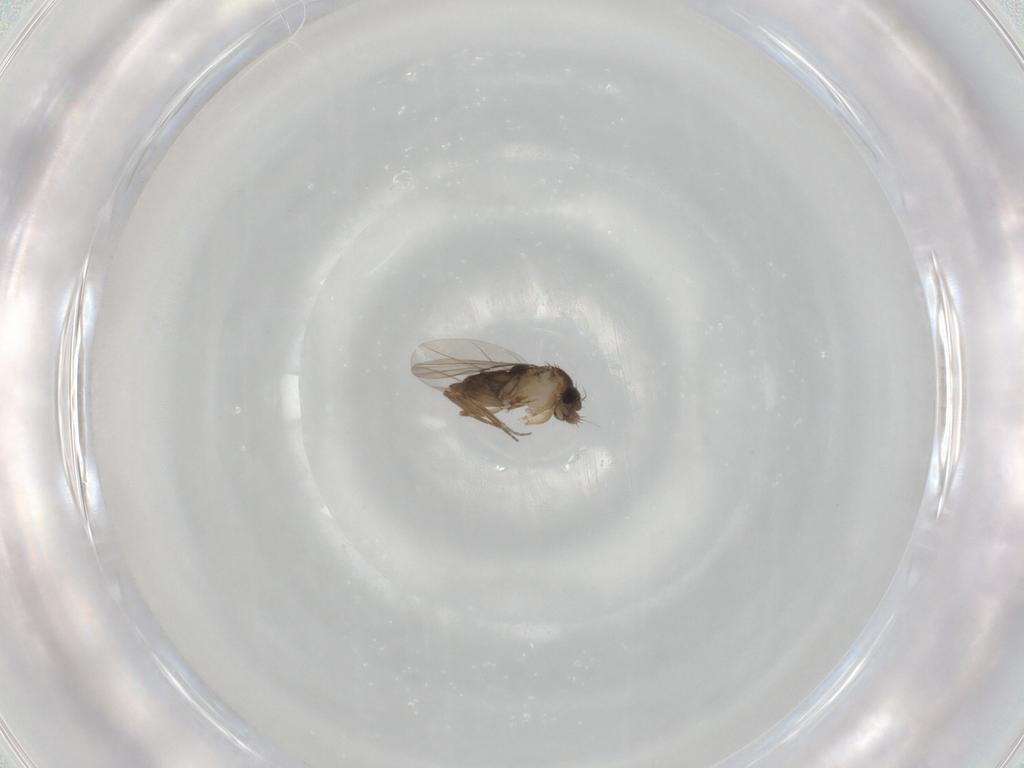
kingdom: Animalia
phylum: Arthropoda
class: Insecta
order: Diptera
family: Phoridae
